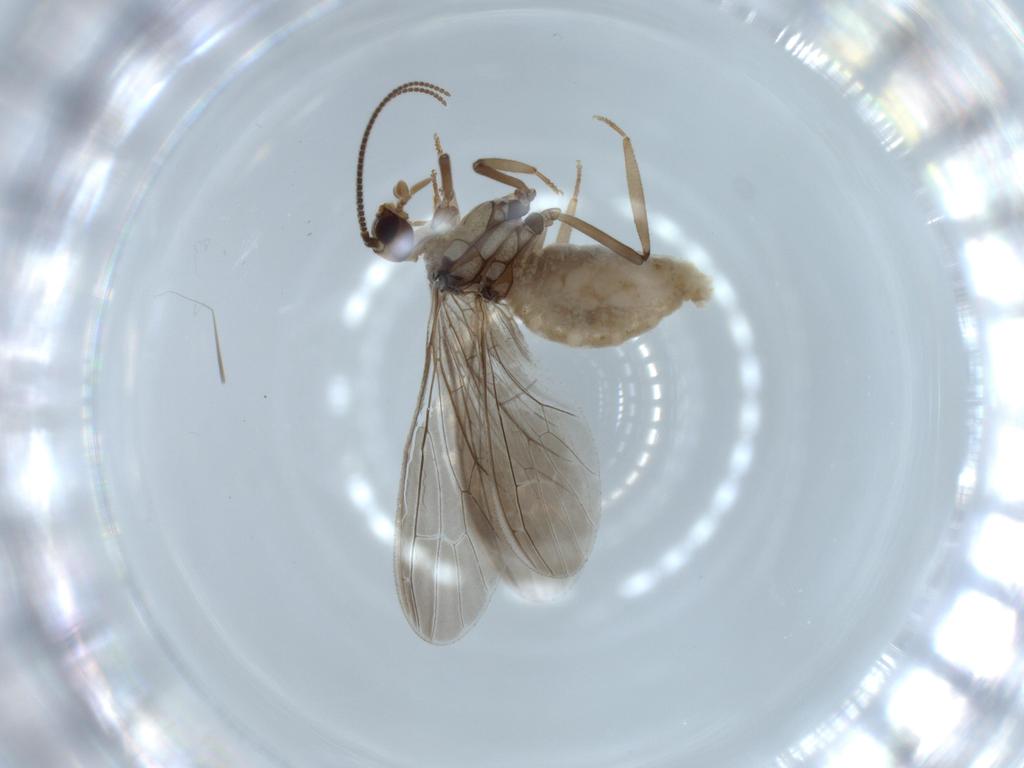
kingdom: Animalia
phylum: Arthropoda
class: Insecta
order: Neuroptera
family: Coniopterygidae
